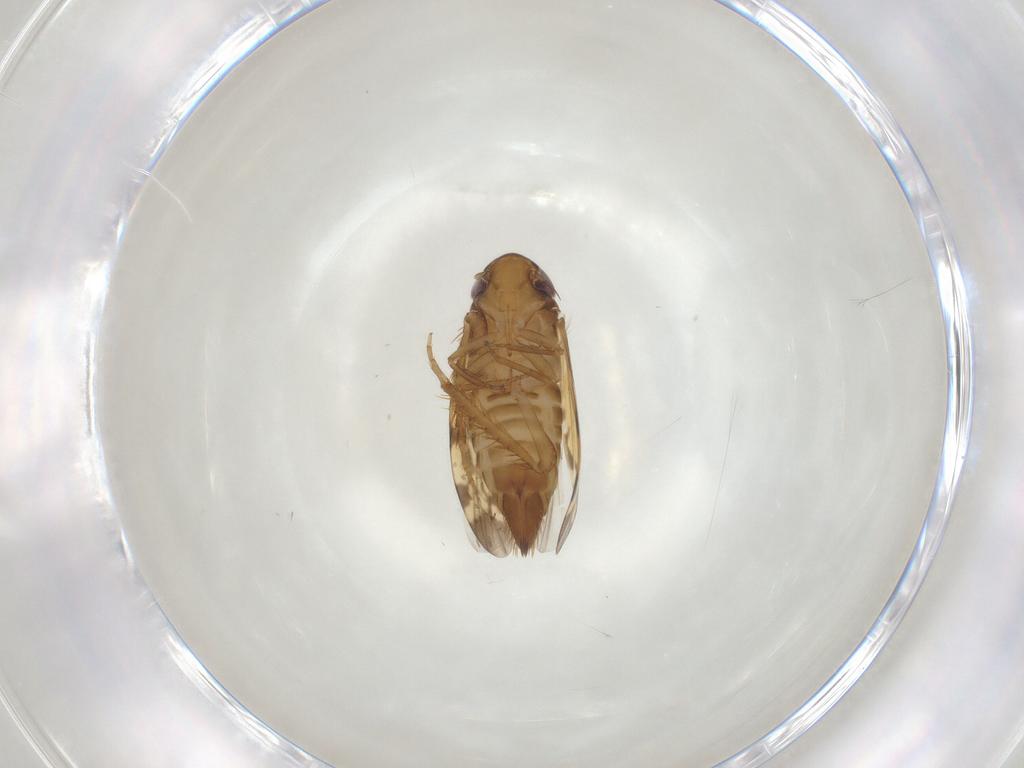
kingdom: Animalia
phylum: Arthropoda
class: Insecta
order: Hemiptera
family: Cicadellidae
